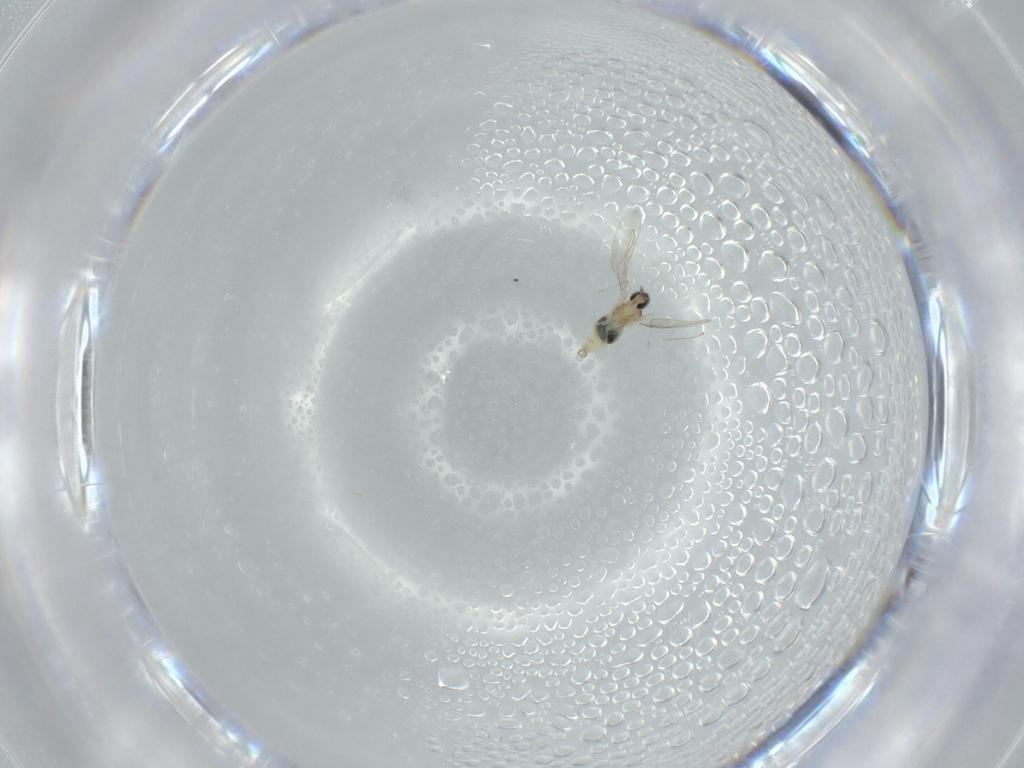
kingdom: Animalia
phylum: Arthropoda
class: Insecta
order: Diptera
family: Cecidomyiidae
